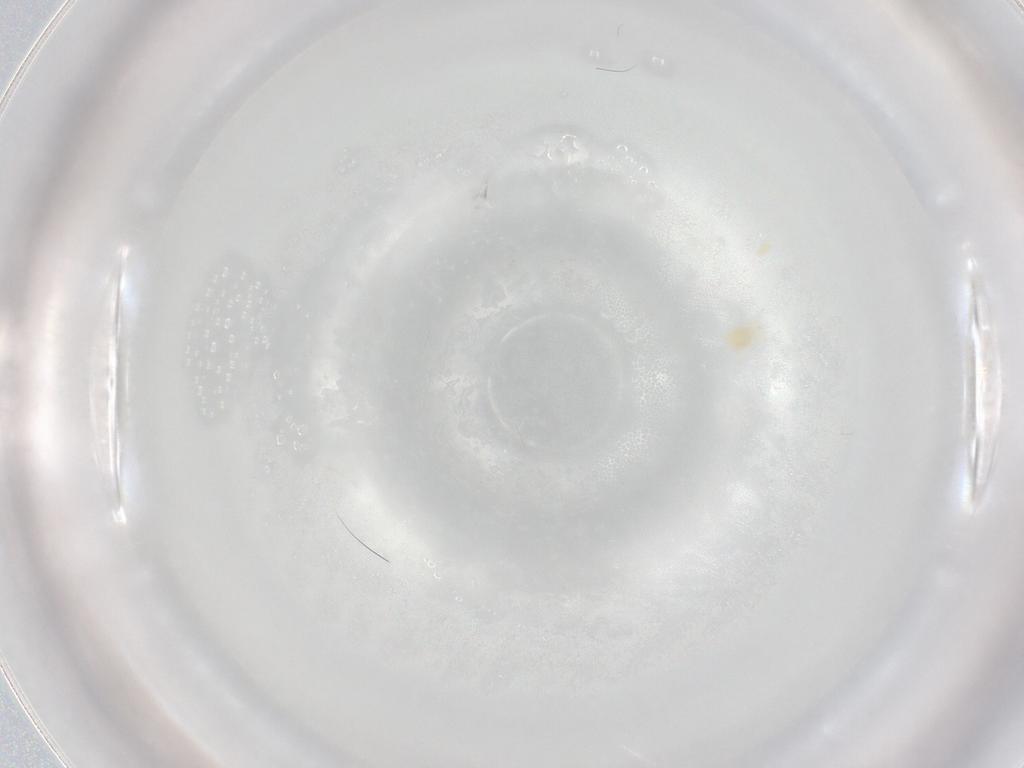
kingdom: Animalia
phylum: Arthropoda
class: Arachnida
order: Trombidiformes
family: Eupodidae
